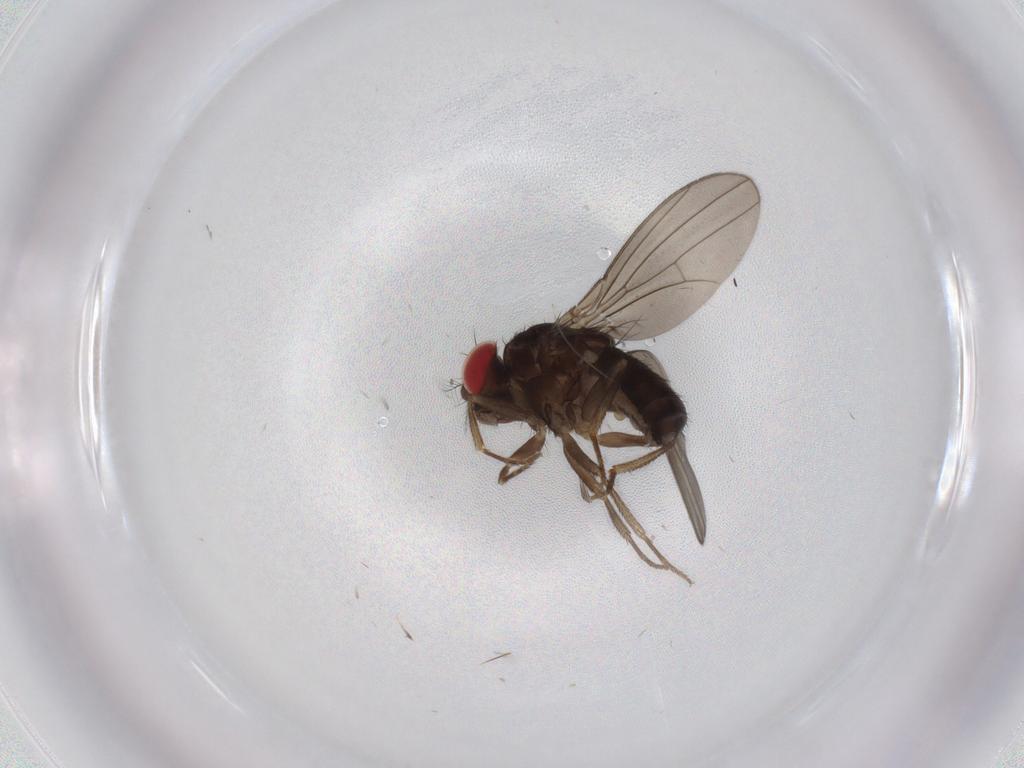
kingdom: Animalia
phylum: Arthropoda
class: Insecta
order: Diptera
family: Drosophilidae
